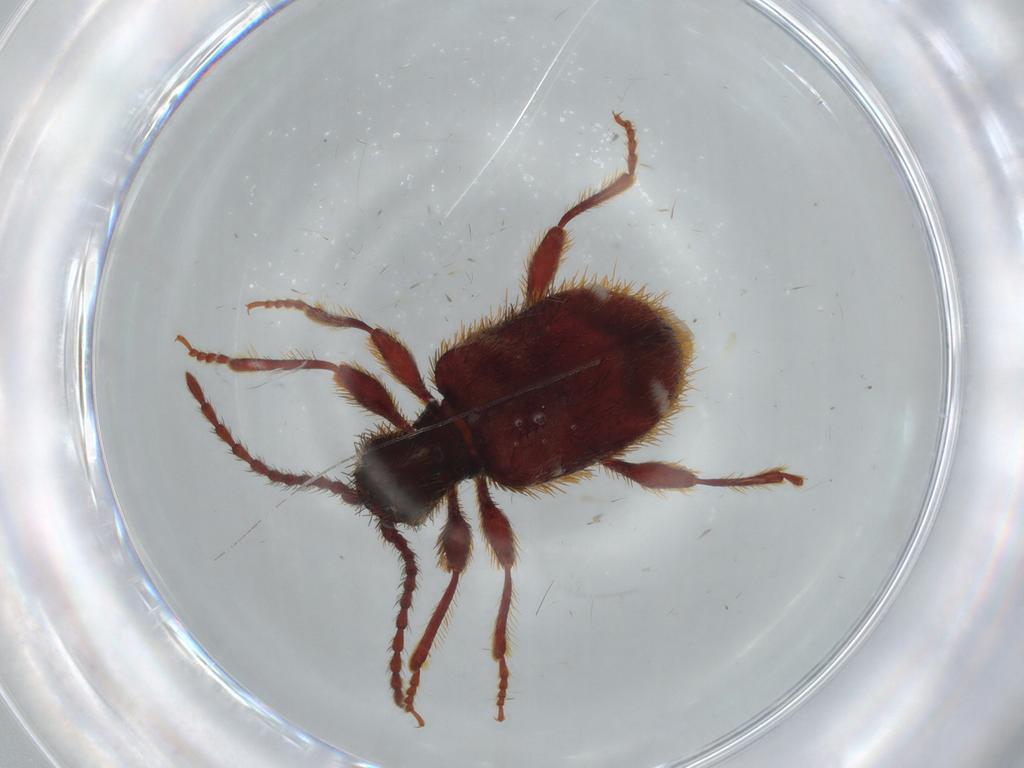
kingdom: Animalia
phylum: Arthropoda
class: Insecta
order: Coleoptera
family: Ptinidae
